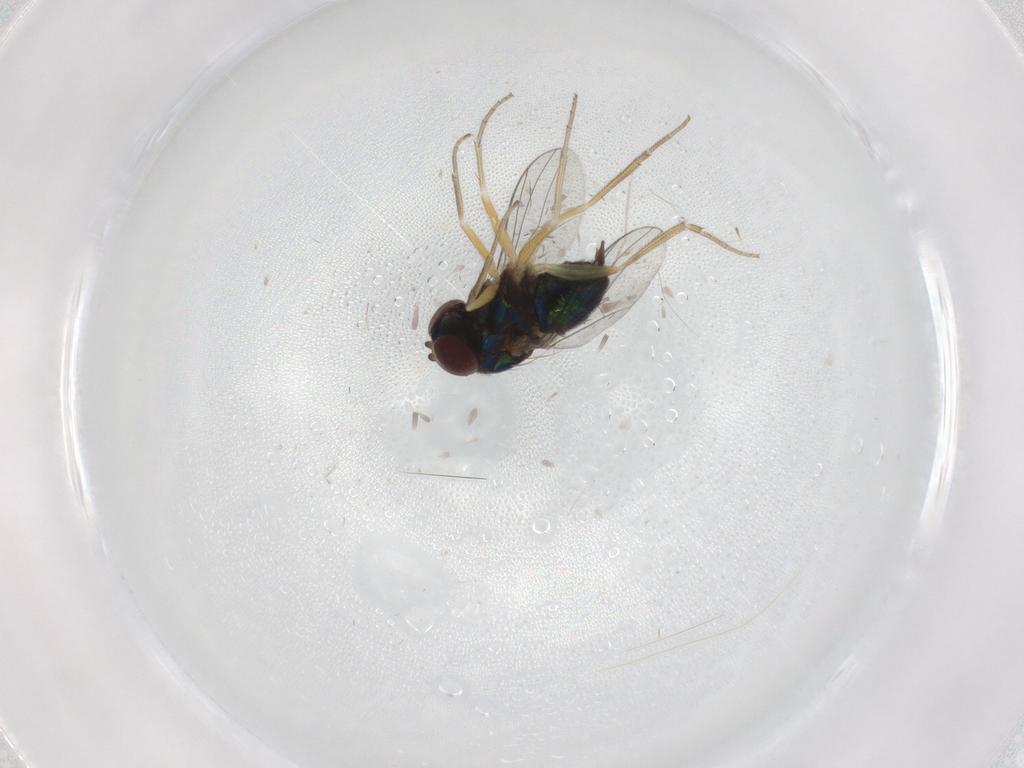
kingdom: Animalia
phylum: Arthropoda
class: Insecta
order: Diptera
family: Dolichopodidae
